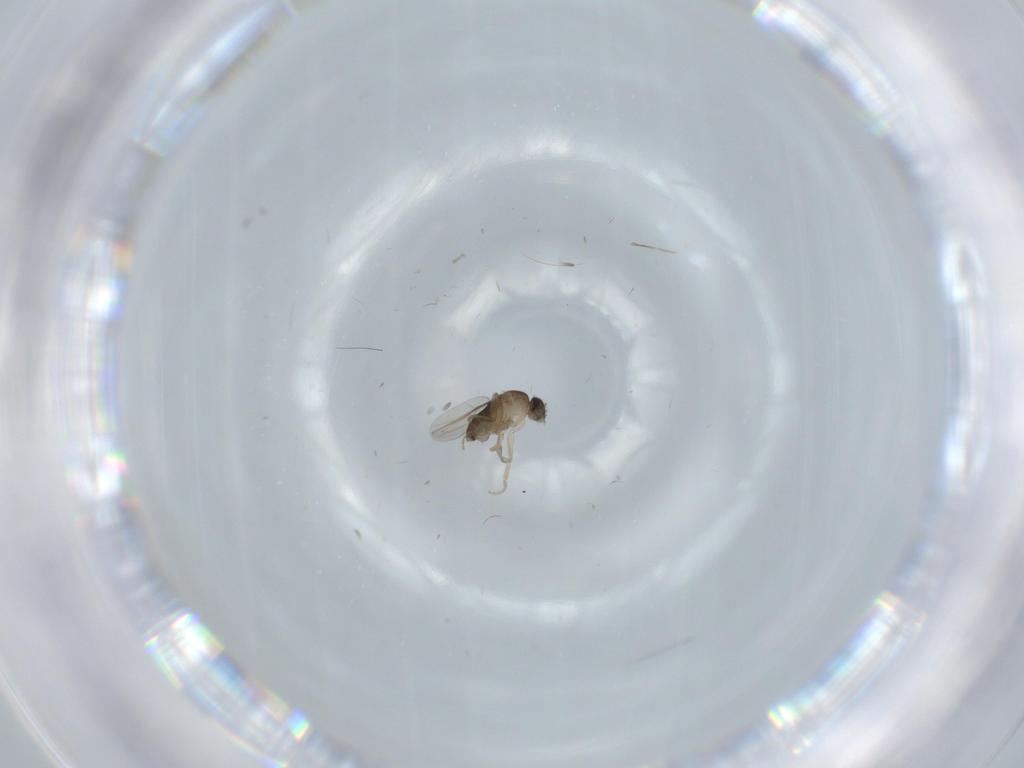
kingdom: Animalia
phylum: Arthropoda
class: Insecta
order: Diptera
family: Phoridae
